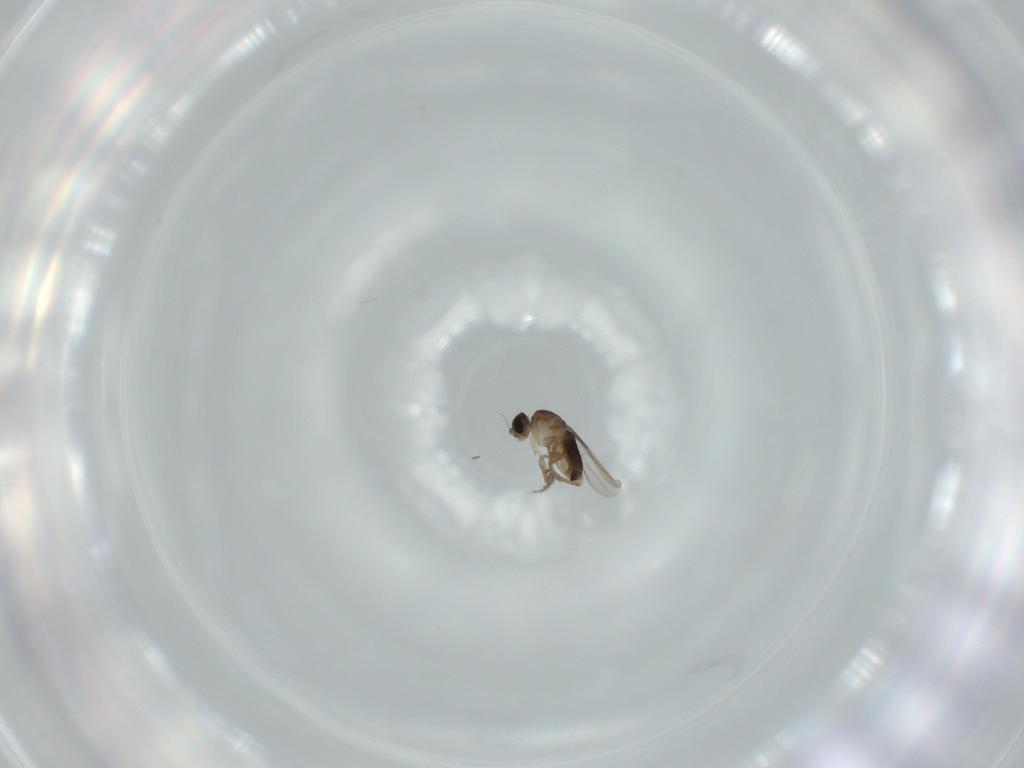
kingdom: Animalia
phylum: Arthropoda
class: Insecta
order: Diptera
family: Phoridae
